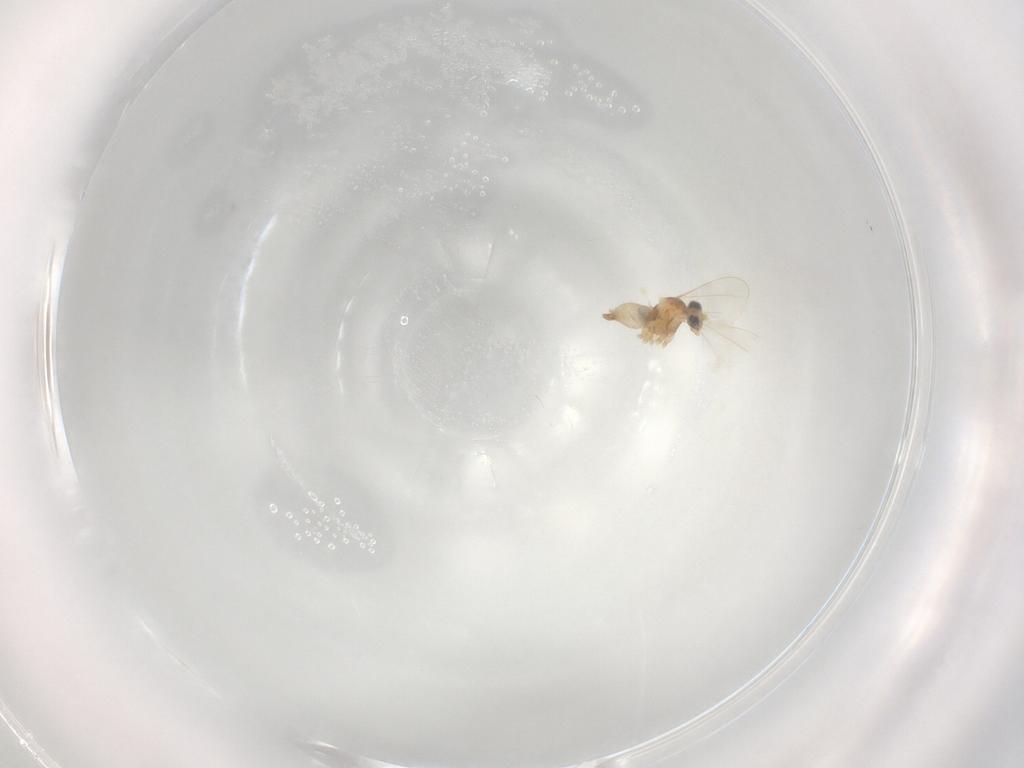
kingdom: Animalia
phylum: Arthropoda
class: Insecta
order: Diptera
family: Cecidomyiidae
